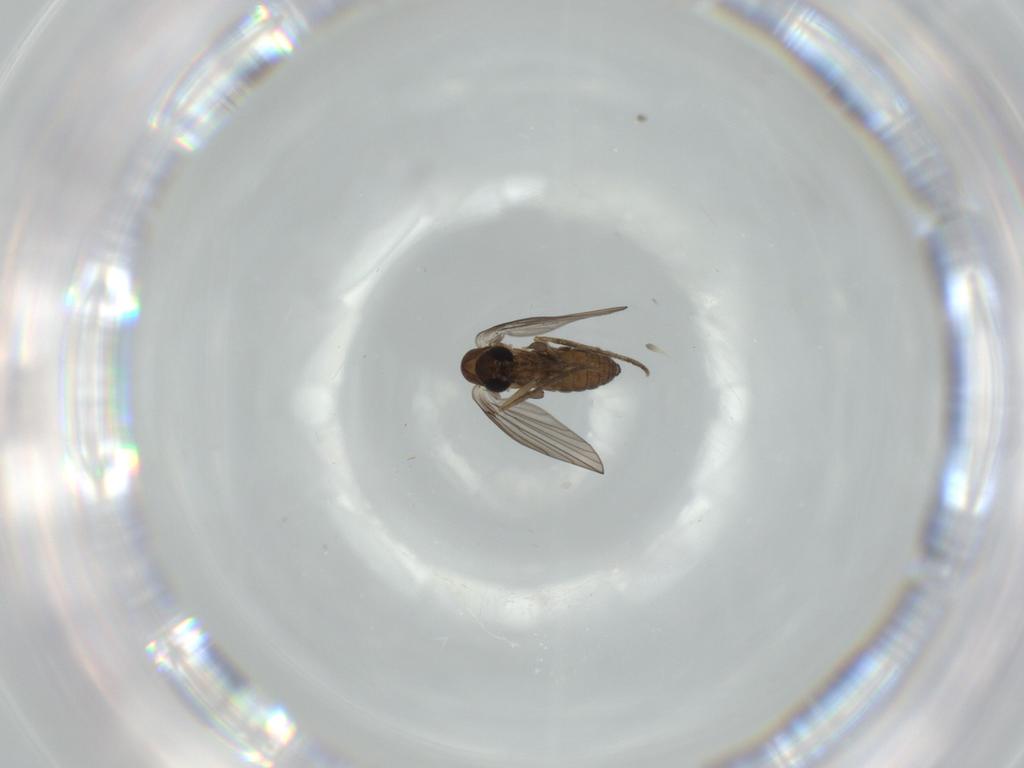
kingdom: Animalia
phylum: Arthropoda
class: Insecta
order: Diptera
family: Psychodidae
